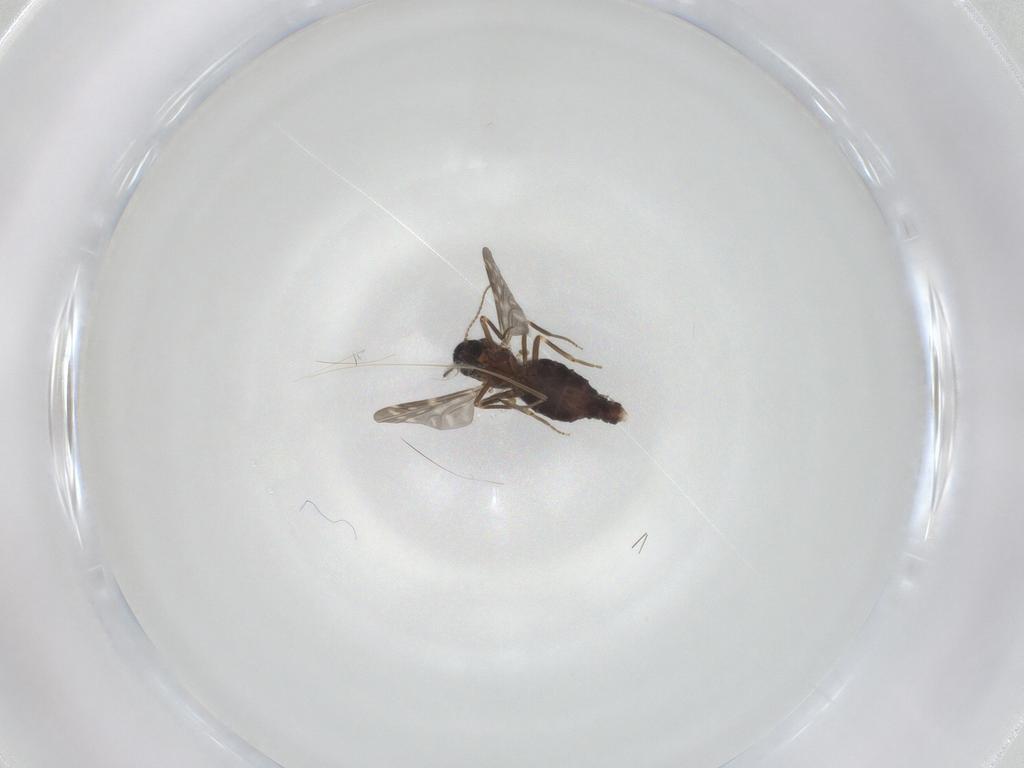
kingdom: Animalia
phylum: Arthropoda
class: Insecta
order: Diptera
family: Ceratopogonidae
